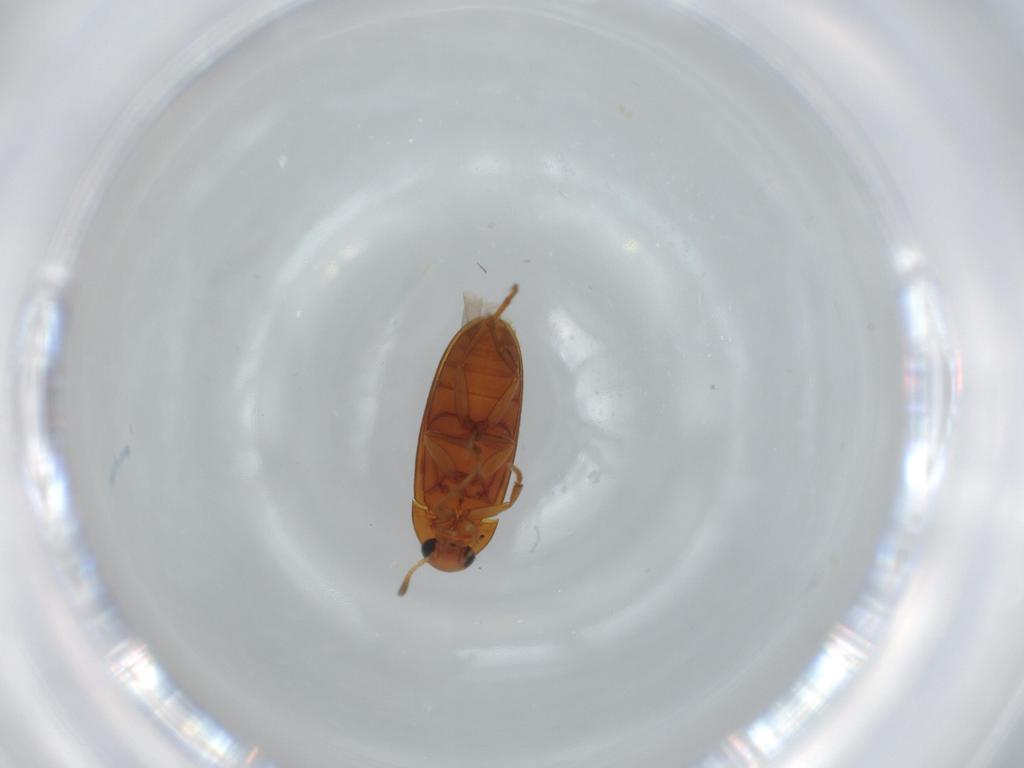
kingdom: Animalia
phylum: Arthropoda
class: Insecta
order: Coleoptera
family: Scraptiidae
